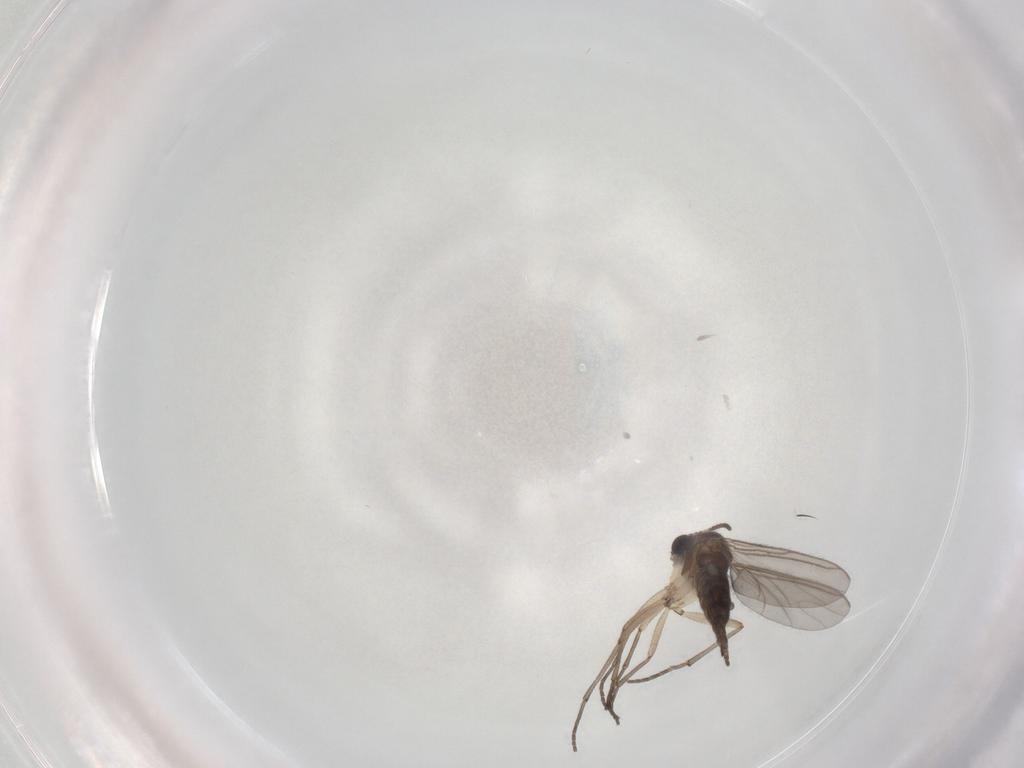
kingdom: Animalia
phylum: Arthropoda
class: Insecta
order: Diptera
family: Sciaridae
